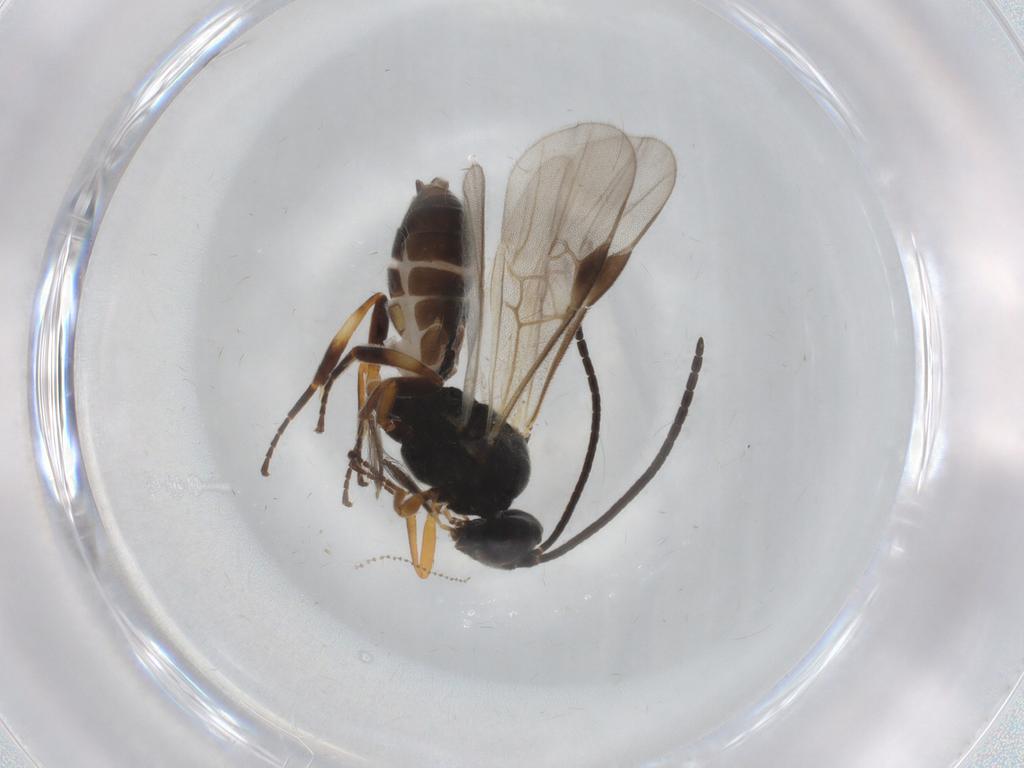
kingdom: Animalia
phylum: Arthropoda
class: Insecta
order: Hymenoptera
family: Braconidae
